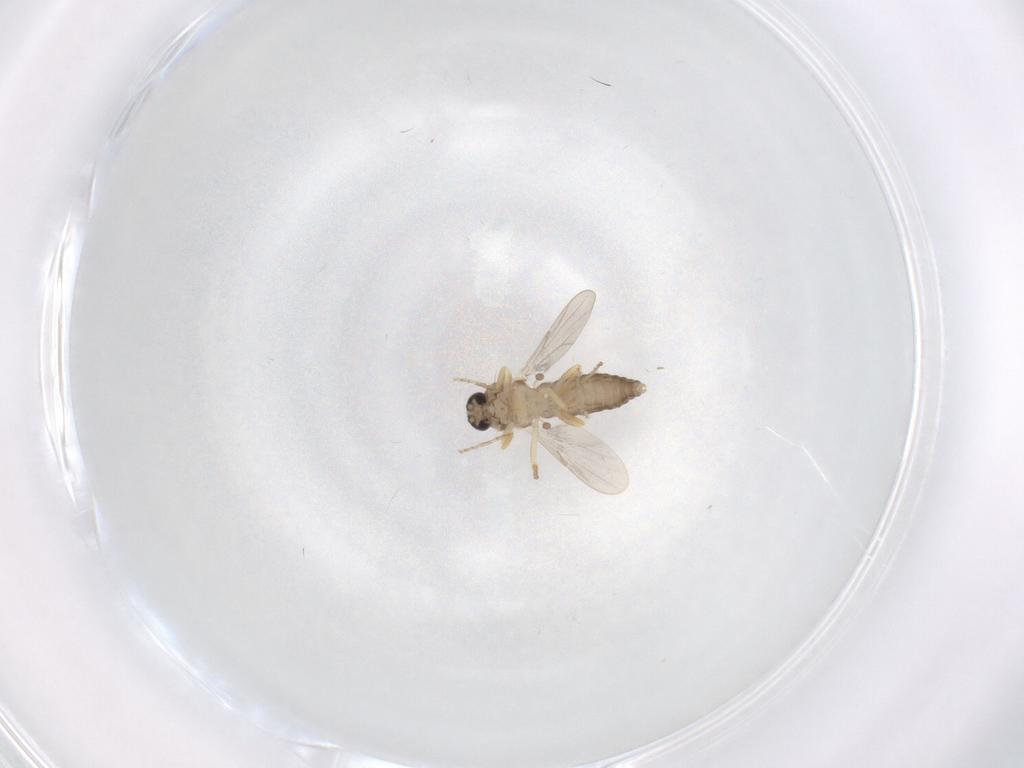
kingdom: Animalia
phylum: Arthropoda
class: Insecta
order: Diptera
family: Ceratopogonidae
